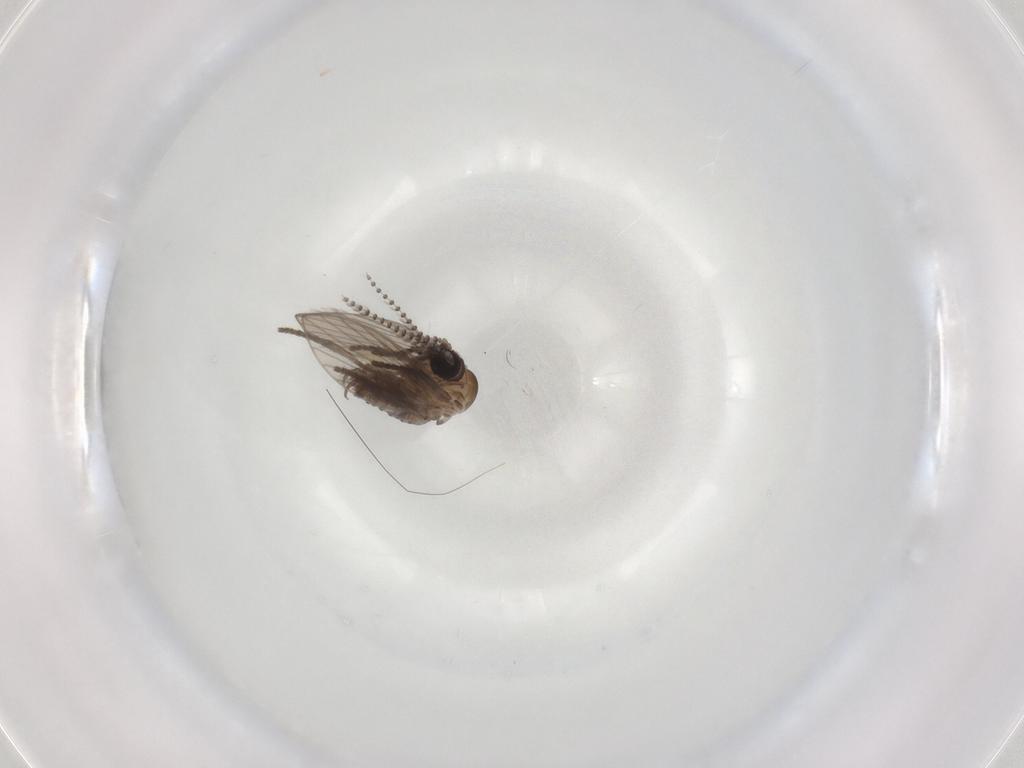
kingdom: Animalia
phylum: Arthropoda
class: Insecta
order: Diptera
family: Psychodidae
